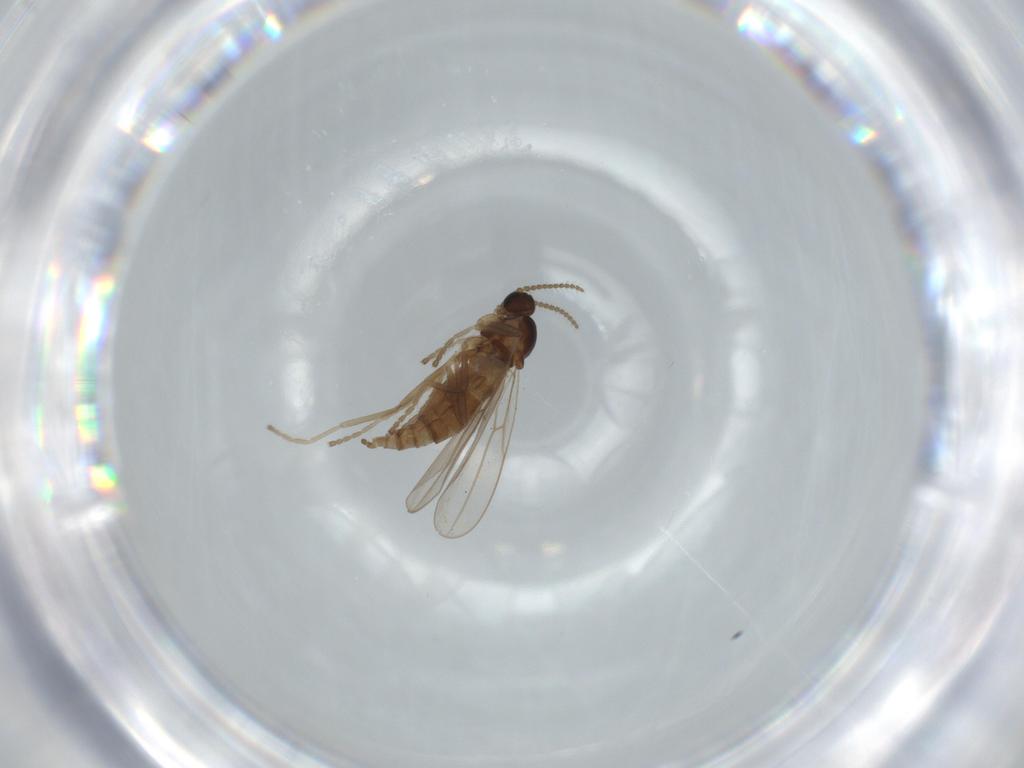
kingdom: Animalia
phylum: Arthropoda
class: Insecta
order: Diptera
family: Cecidomyiidae
